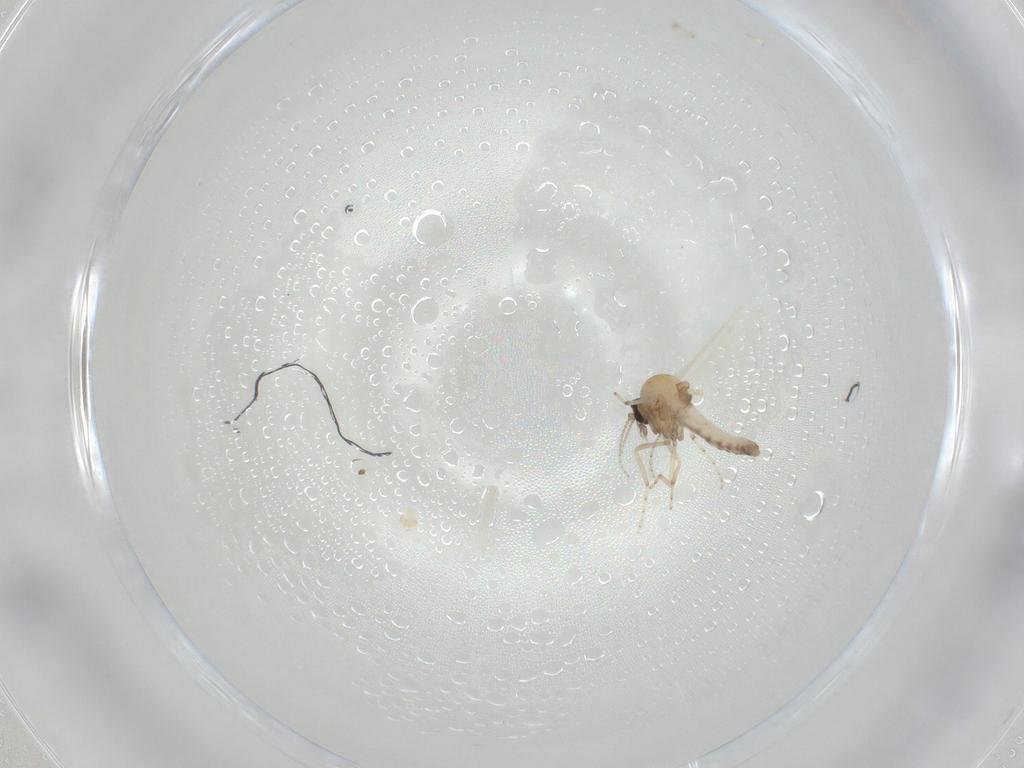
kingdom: Animalia
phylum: Arthropoda
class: Insecta
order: Diptera
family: Ceratopogonidae
